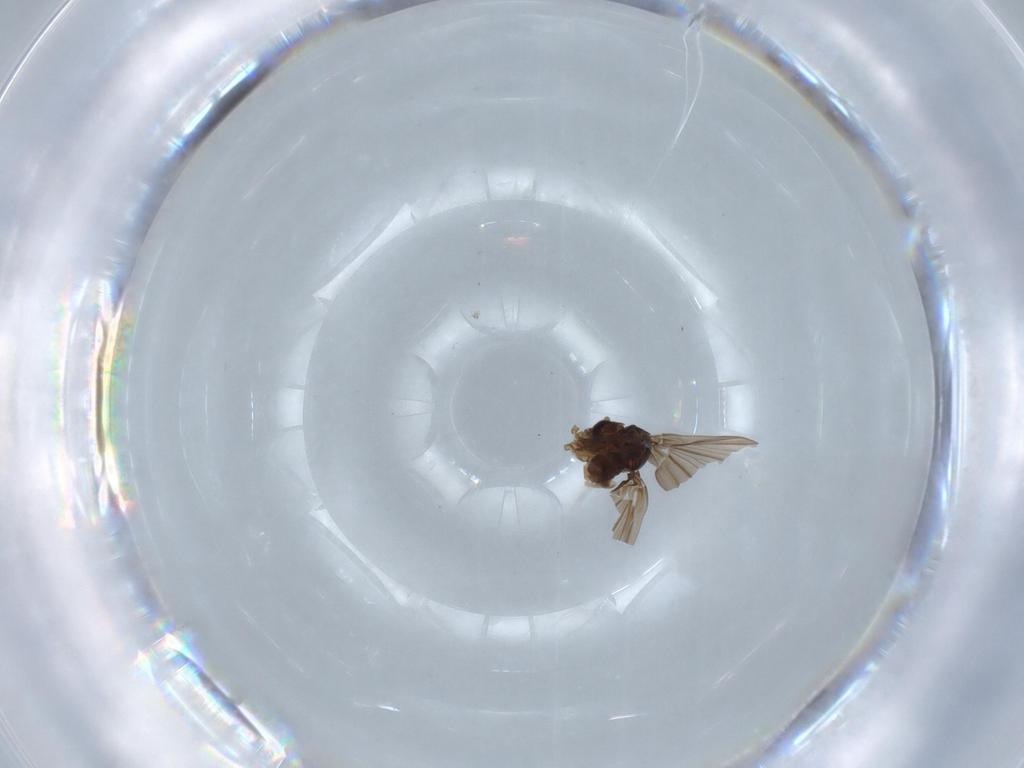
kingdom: Animalia
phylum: Arthropoda
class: Insecta
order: Diptera
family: Psychodidae
